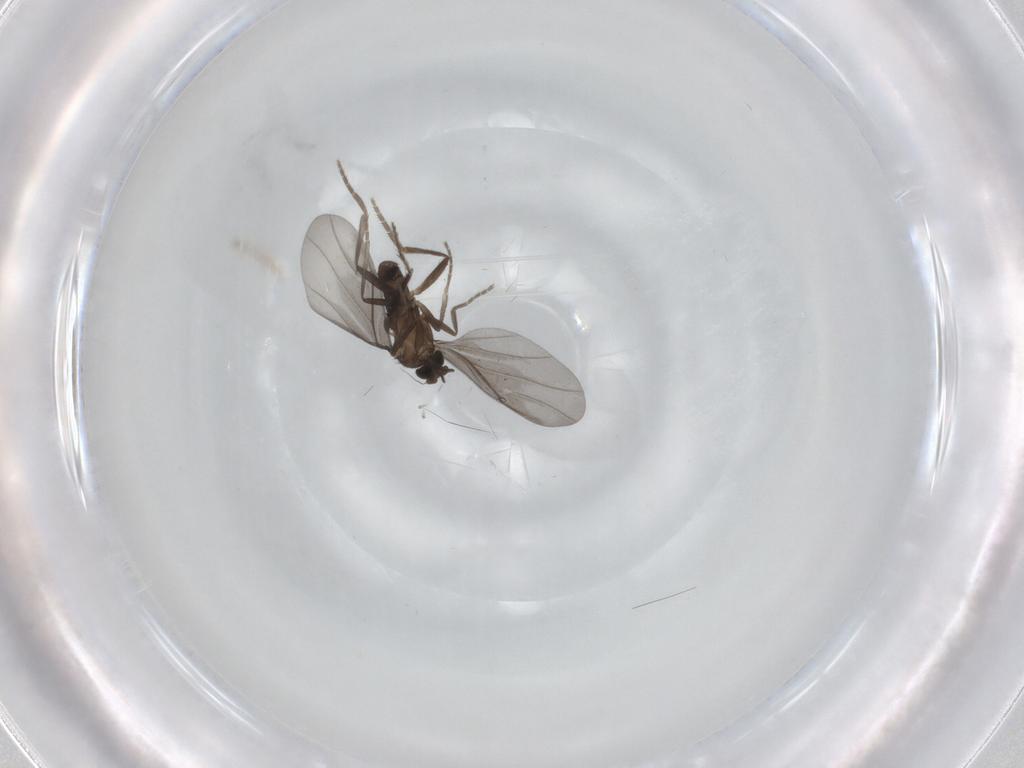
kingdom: Animalia
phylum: Arthropoda
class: Insecta
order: Diptera
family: Phoridae
